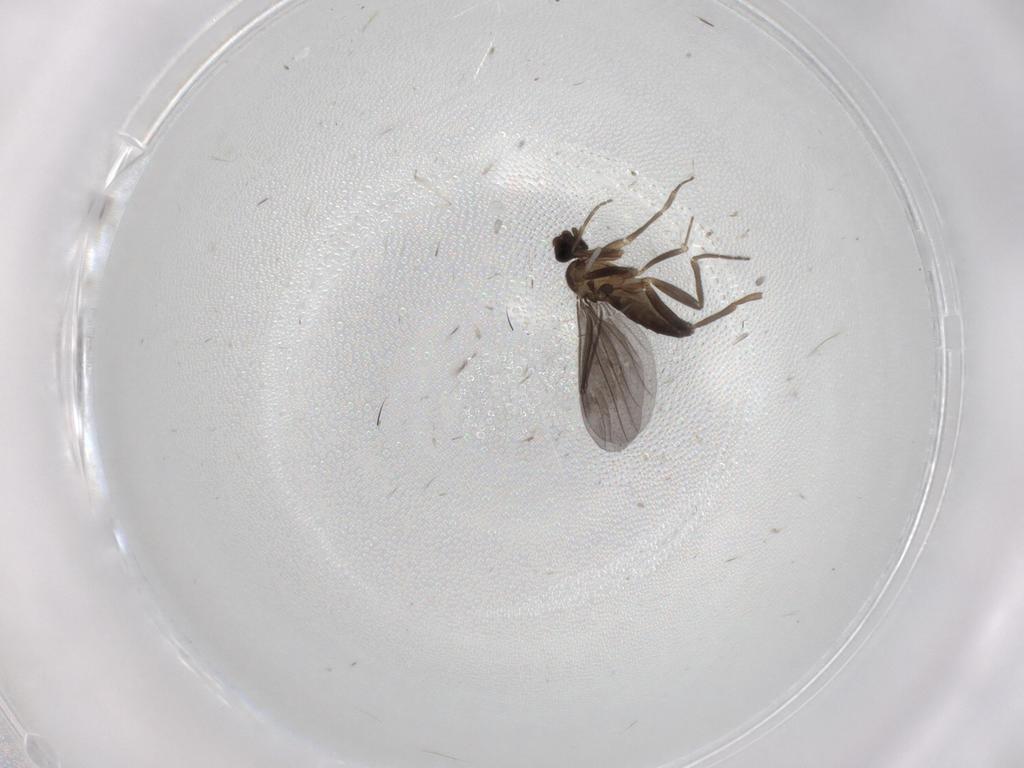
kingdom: Animalia
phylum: Arthropoda
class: Insecta
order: Diptera
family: Chironomidae
